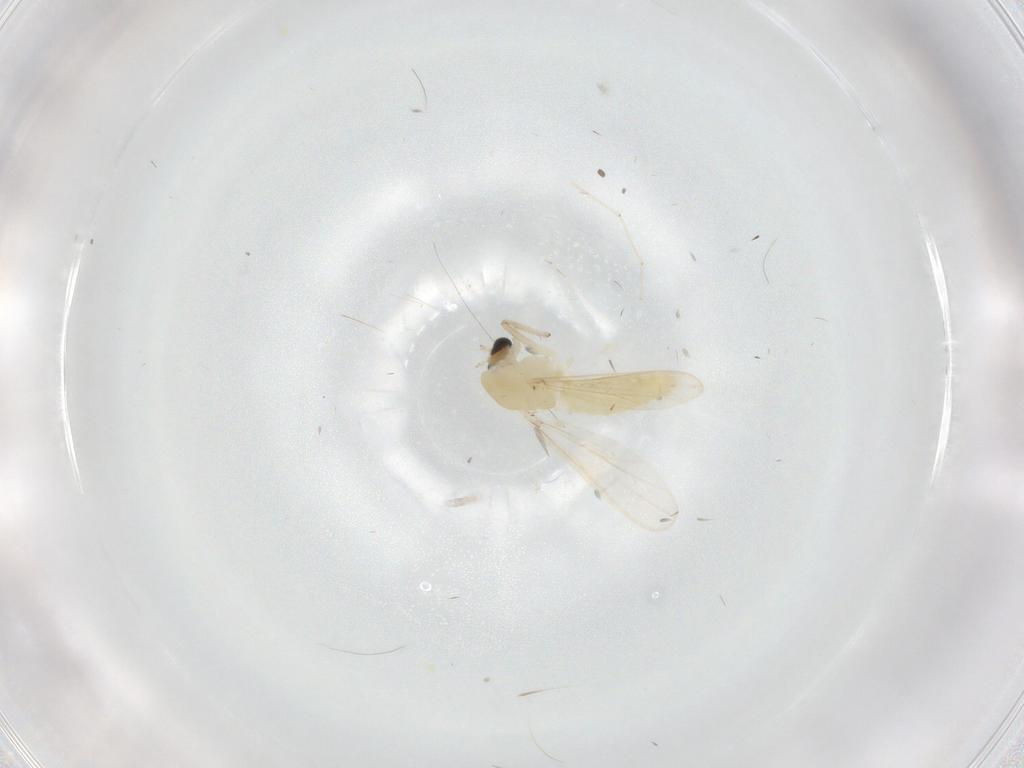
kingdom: Animalia
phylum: Arthropoda
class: Insecta
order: Diptera
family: Chironomidae
